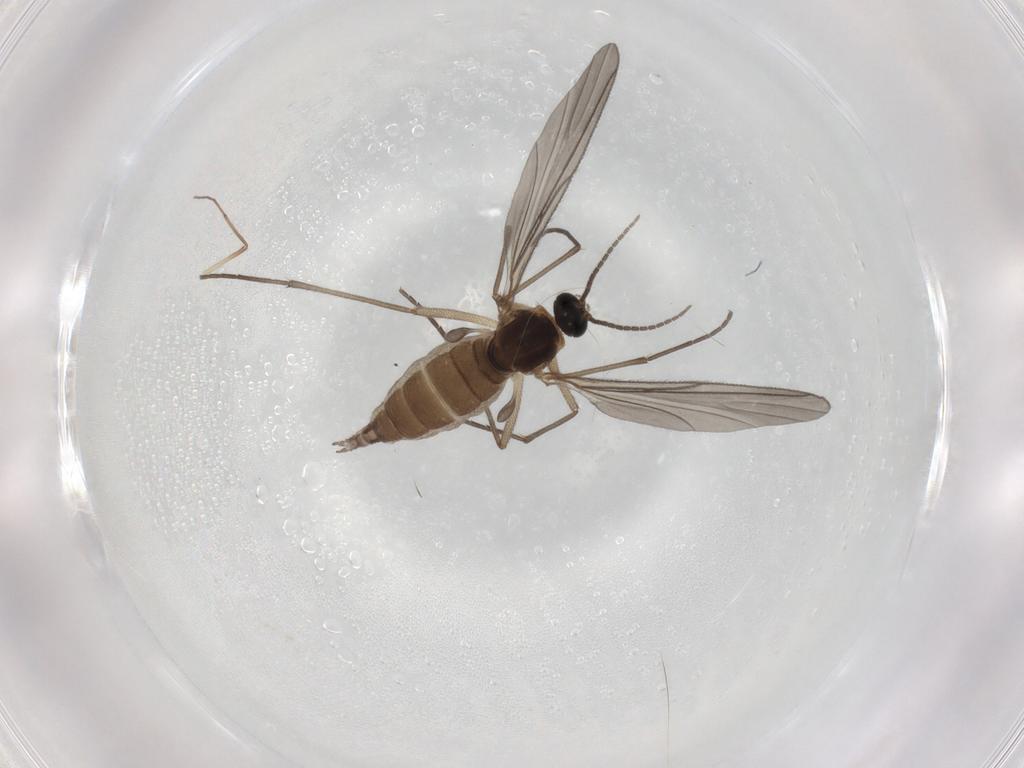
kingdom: Animalia
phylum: Arthropoda
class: Insecta
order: Diptera
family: Sciaridae
